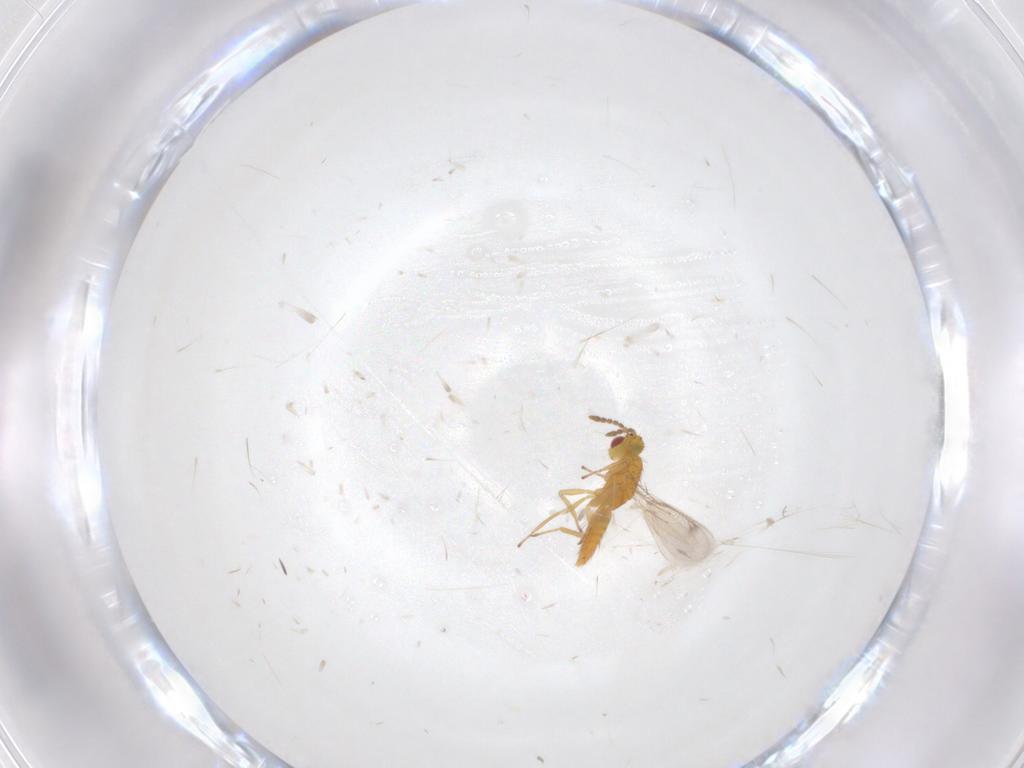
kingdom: Animalia
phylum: Arthropoda
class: Insecta
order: Hymenoptera
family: Eulophidae
